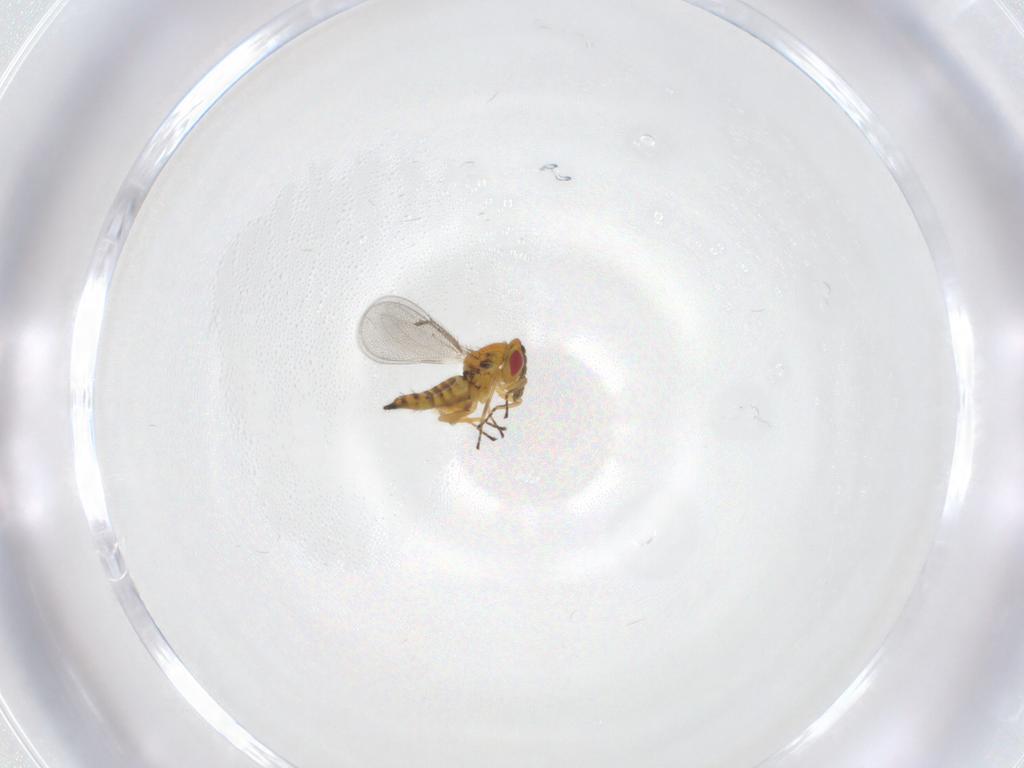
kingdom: Animalia
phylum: Arthropoda
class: Insecta
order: Hymenoptera
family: Eulophidae
